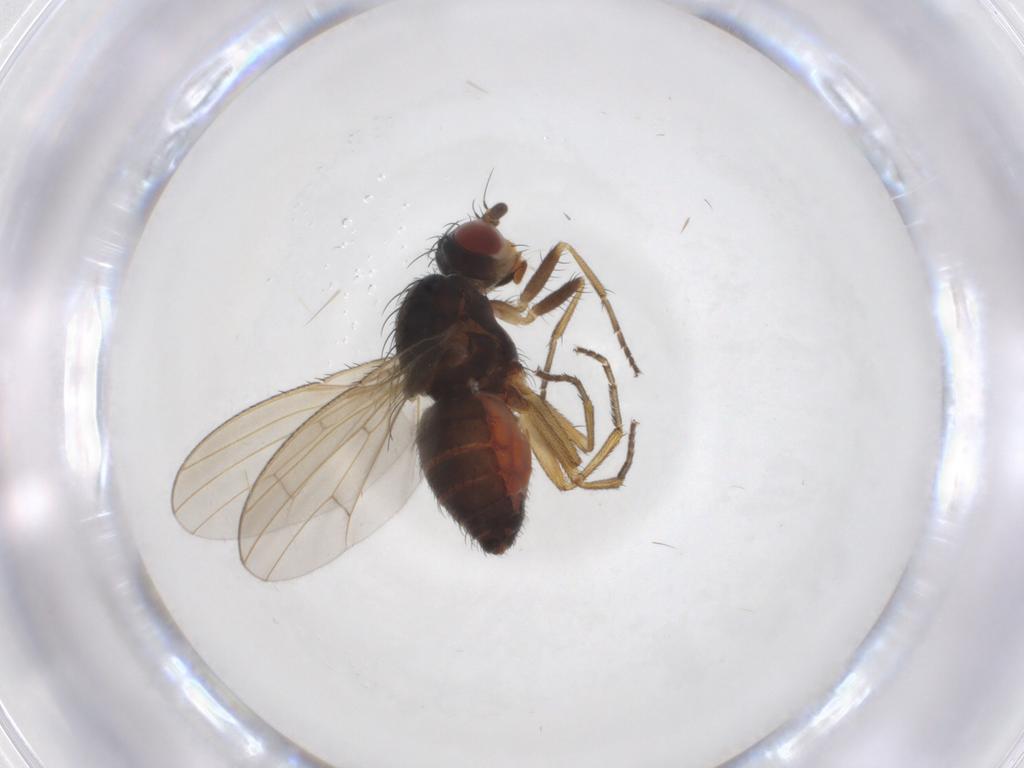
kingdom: Animalia
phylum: Arthropoda
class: Insecta
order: Diptera
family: Heleomyzidae
